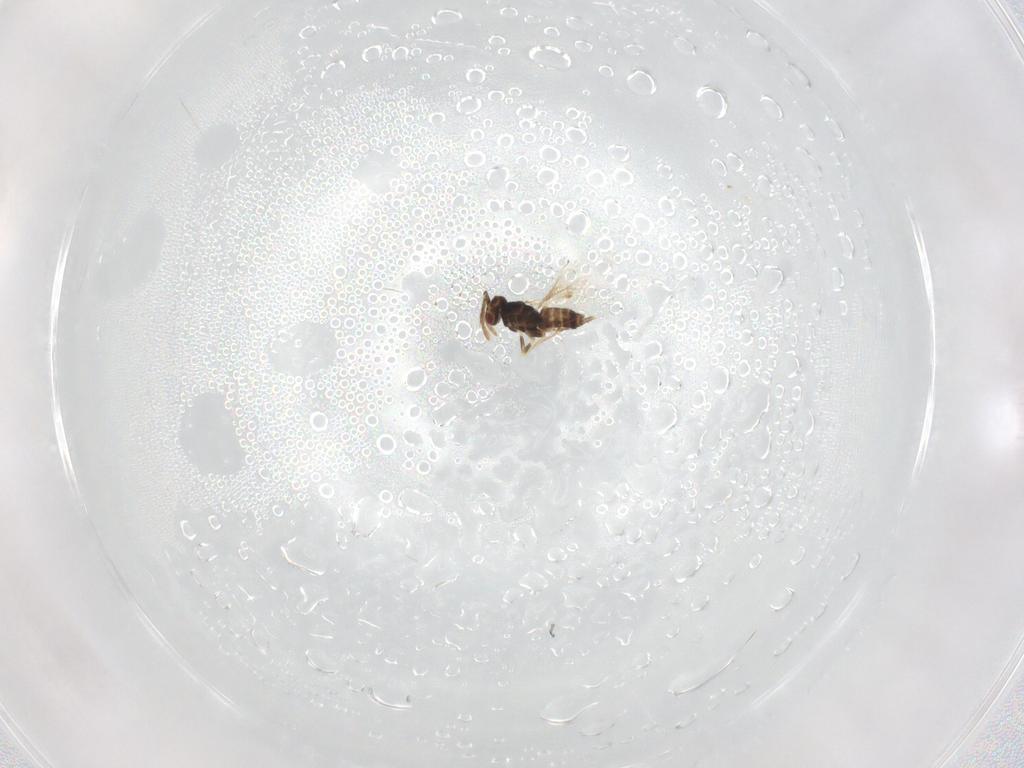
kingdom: Animalia
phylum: Arthropoda
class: Insecta
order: Hymenoptera
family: Eulophidae
